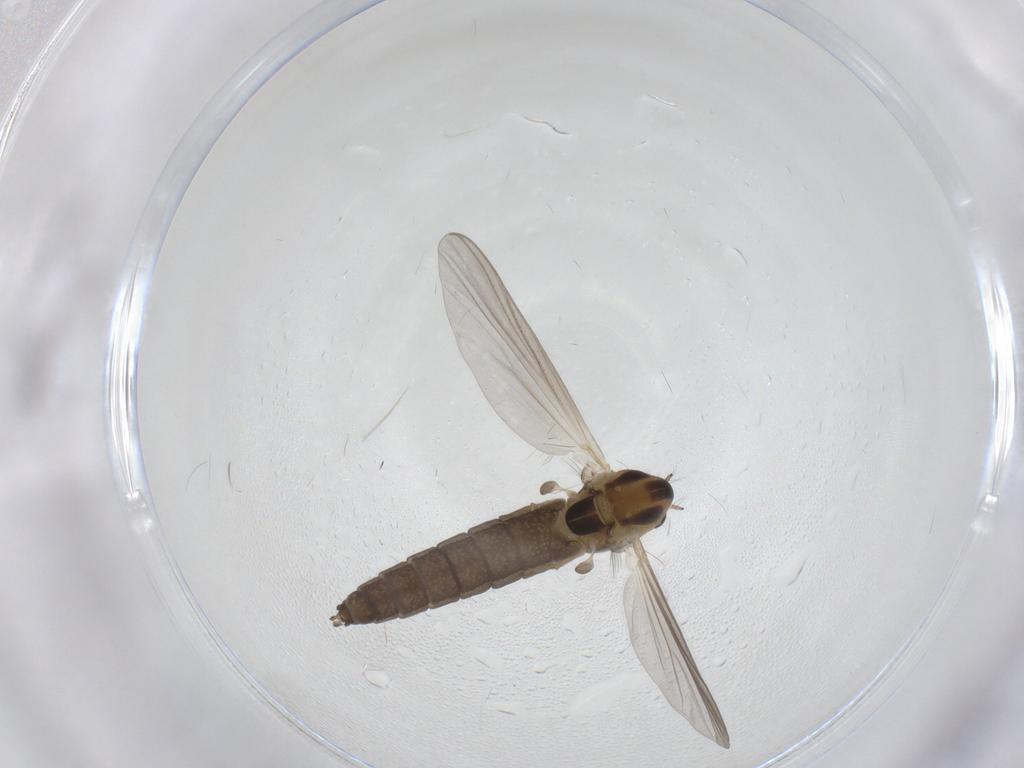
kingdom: Animalia
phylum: Arthropoda
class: Insecta
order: Diptera
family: Chironomidae
